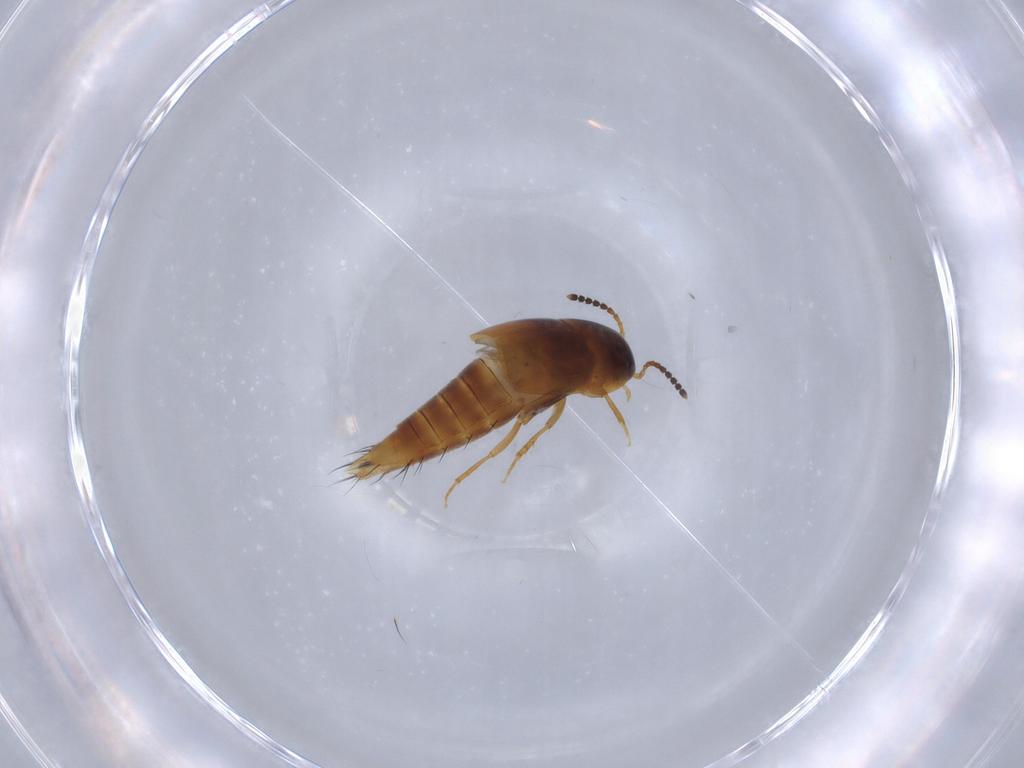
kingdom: Animalia
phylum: Arthropoda
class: Insecta
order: Coleoptera
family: Staphylinidae
